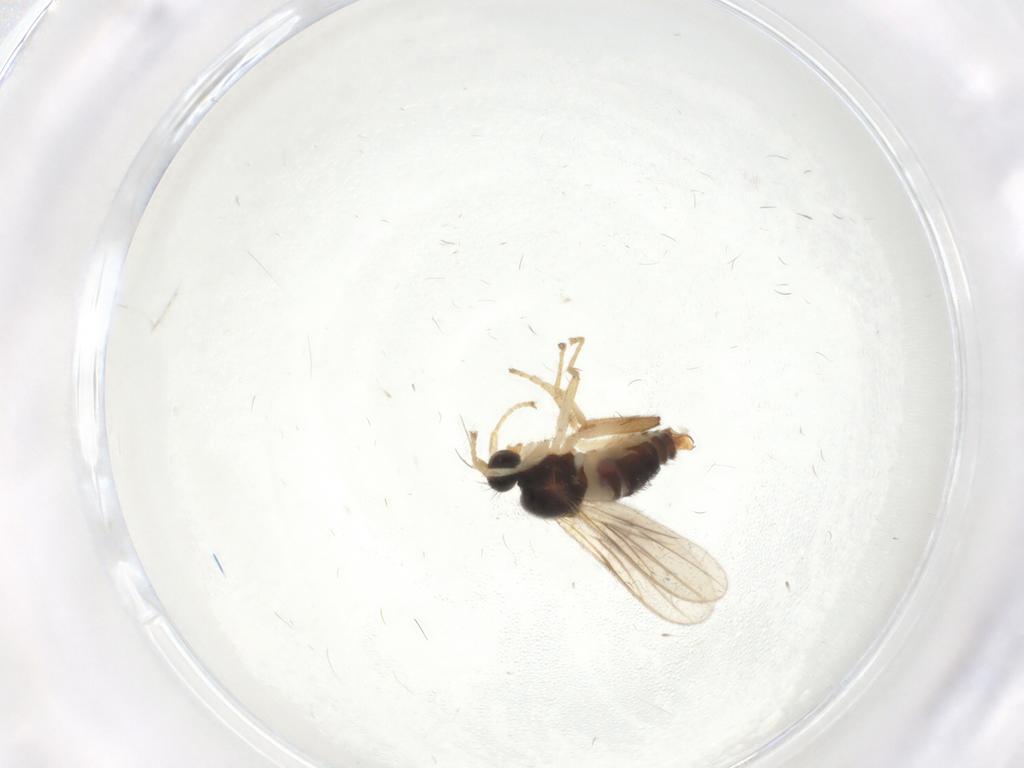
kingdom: Animalia
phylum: Arthropoda
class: Insecta
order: Diptera
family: Hybotidae
